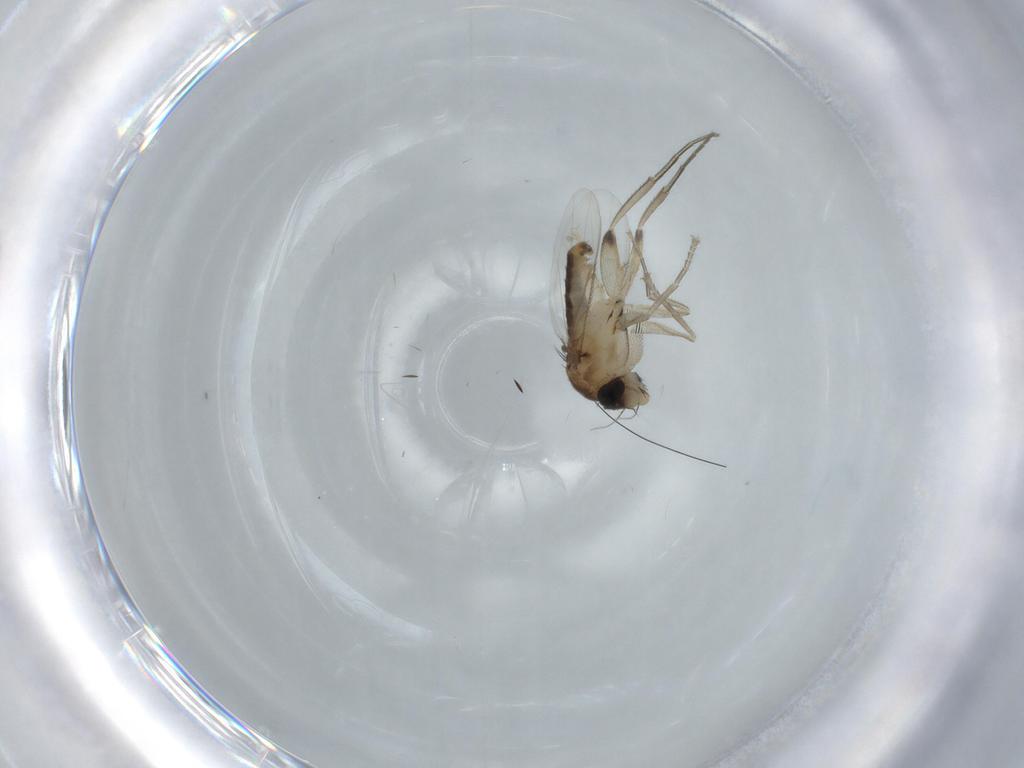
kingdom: Animalia
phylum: Arthropoda
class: Insecta
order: Diptera
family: Phoridae
